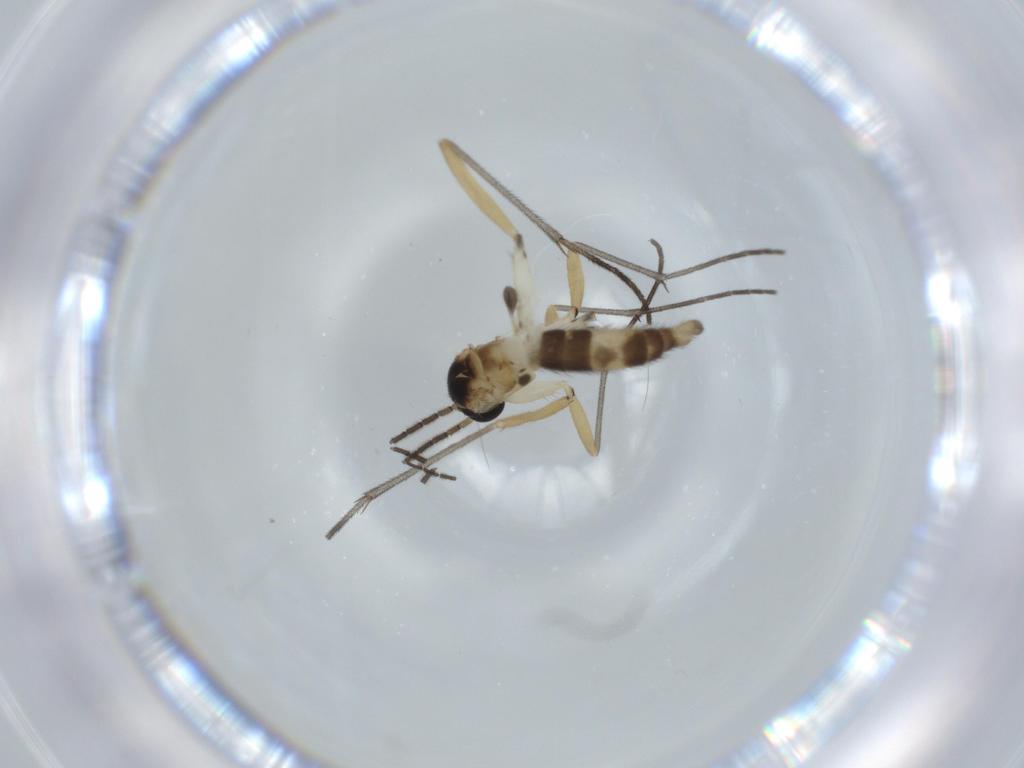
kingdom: Animalia
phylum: Arthropoda
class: Insecta
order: Diptera
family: Sciaridae
